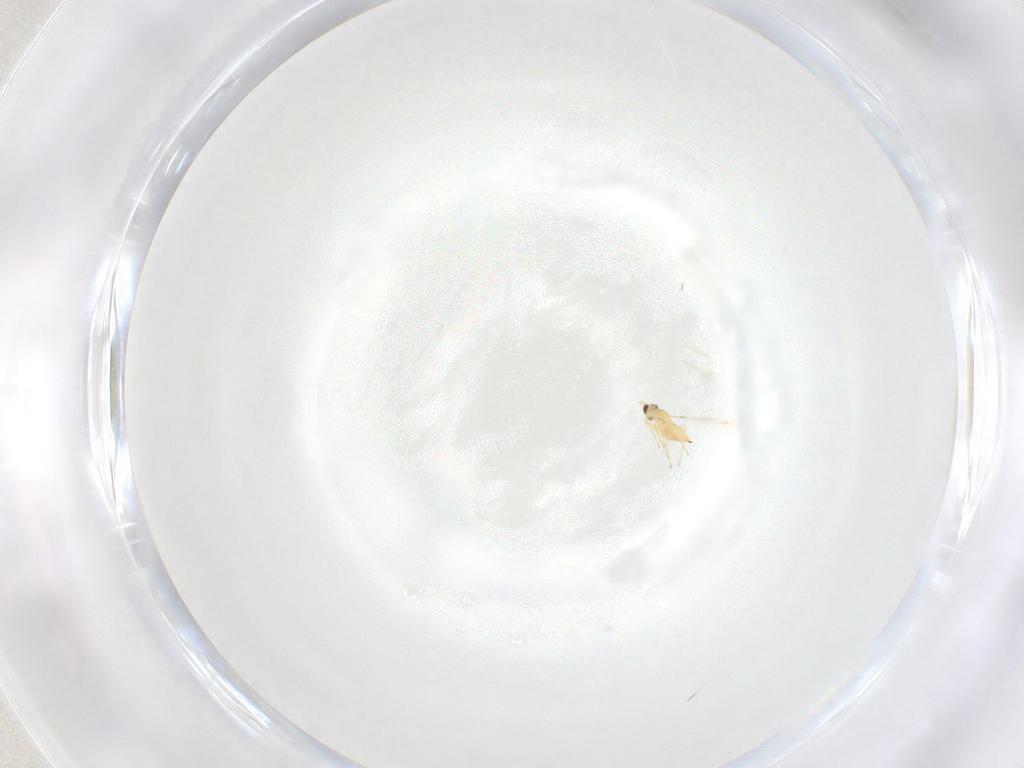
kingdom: Animalia
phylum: Arthropoda
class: Insecta
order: Hymenoptera
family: Mymaridae
